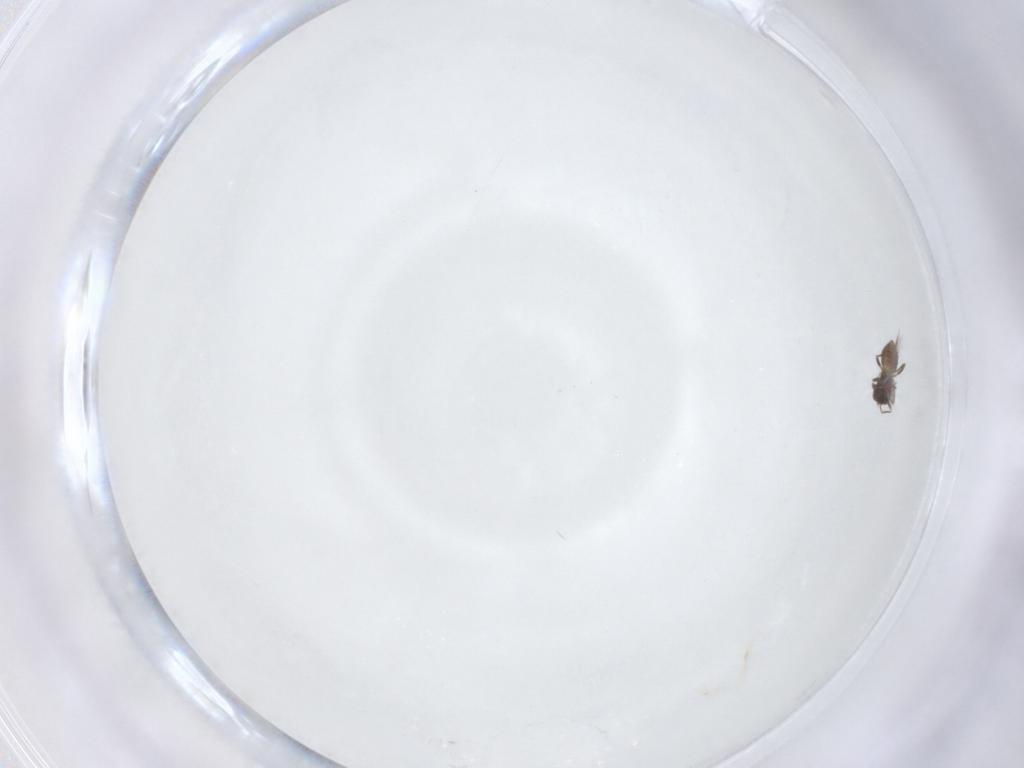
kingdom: Animalia
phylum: Arthropoda
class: Insecta
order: Hymenoptera
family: Mymaridae
